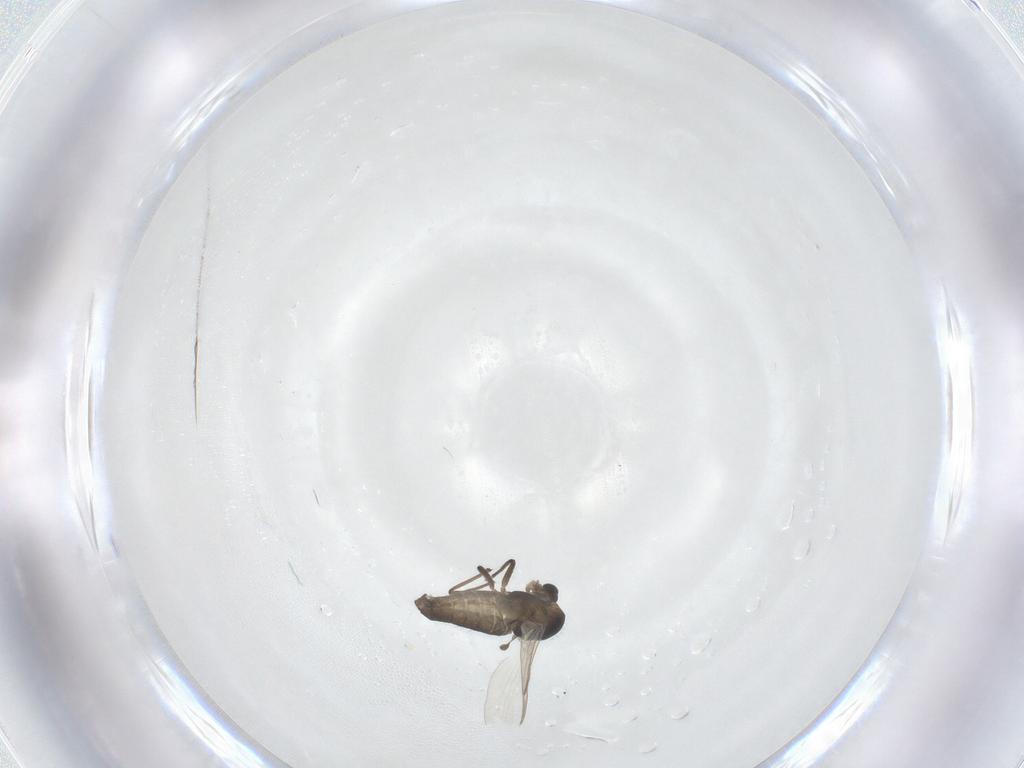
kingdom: Animalia
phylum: Arthropoda
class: Insecta
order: Diptera
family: Chironomidae
